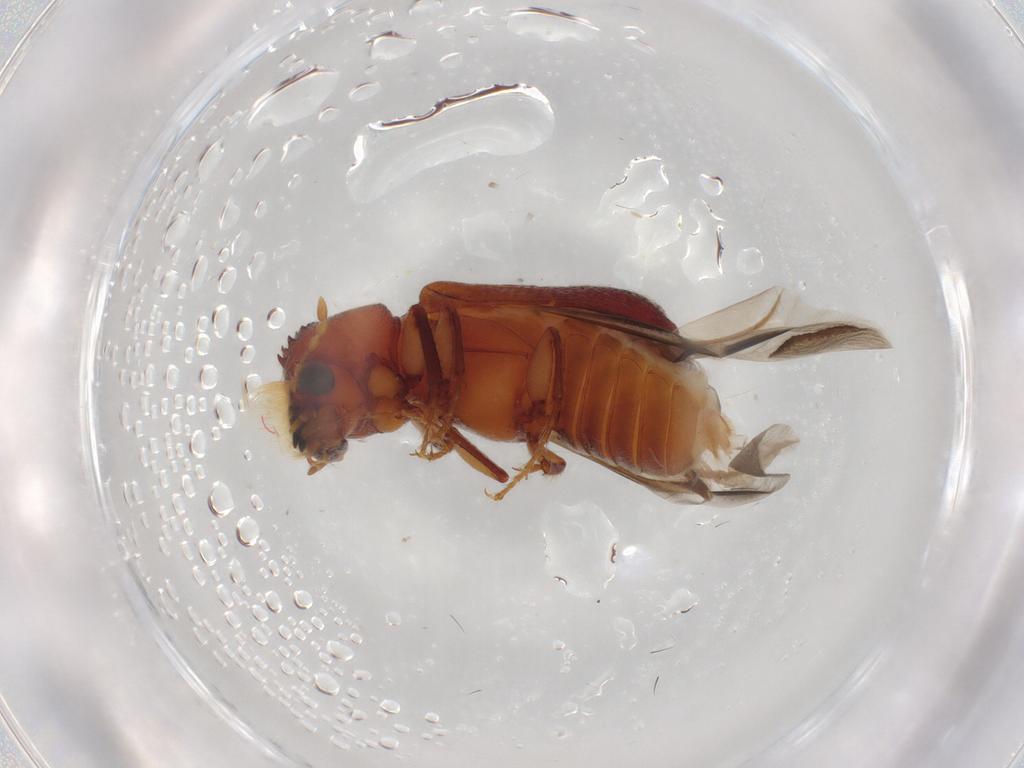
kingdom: Animalia
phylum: Arthropoda
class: Insecta
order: Coleoptera
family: Bostrichidae
